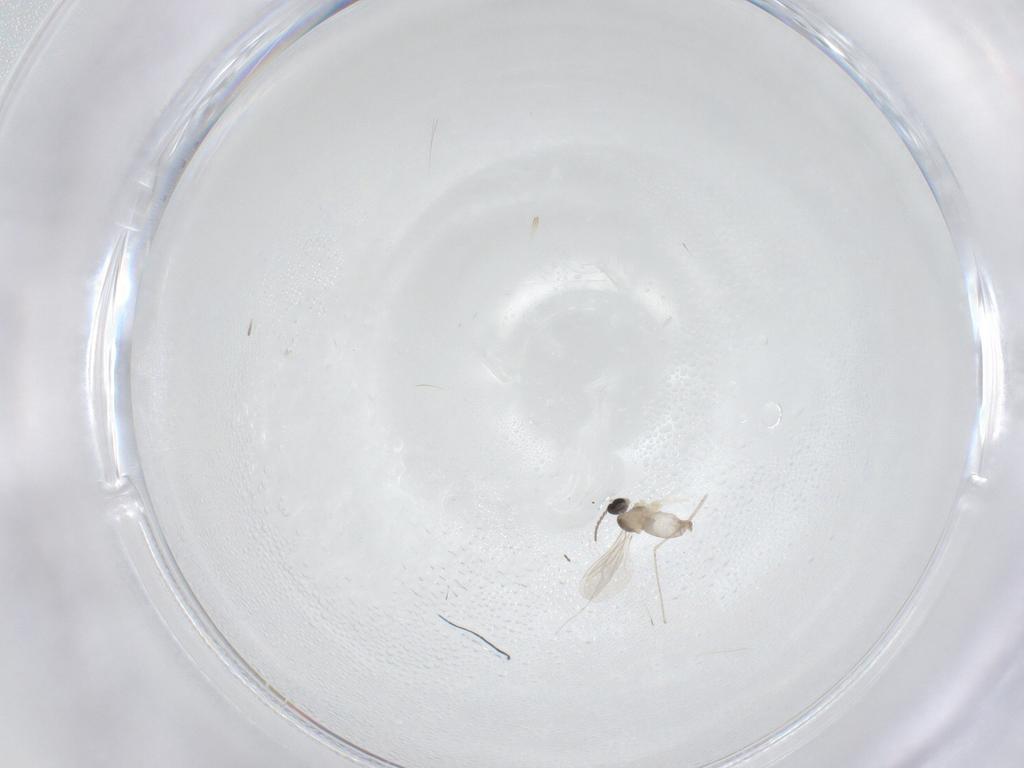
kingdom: Animalia
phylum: Arthropoda
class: Insecta
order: Diptera
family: Cecidomyiidae
